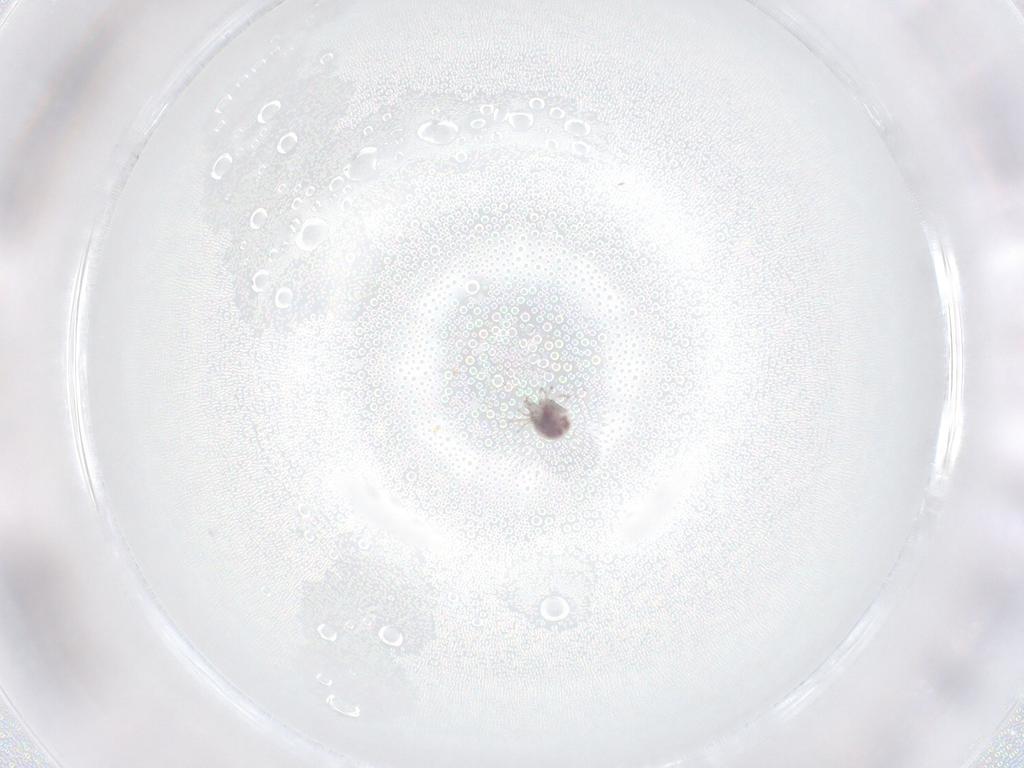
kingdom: Animalia
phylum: Arthropoda
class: Arachnida
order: Trombidiformes
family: Pionidae
